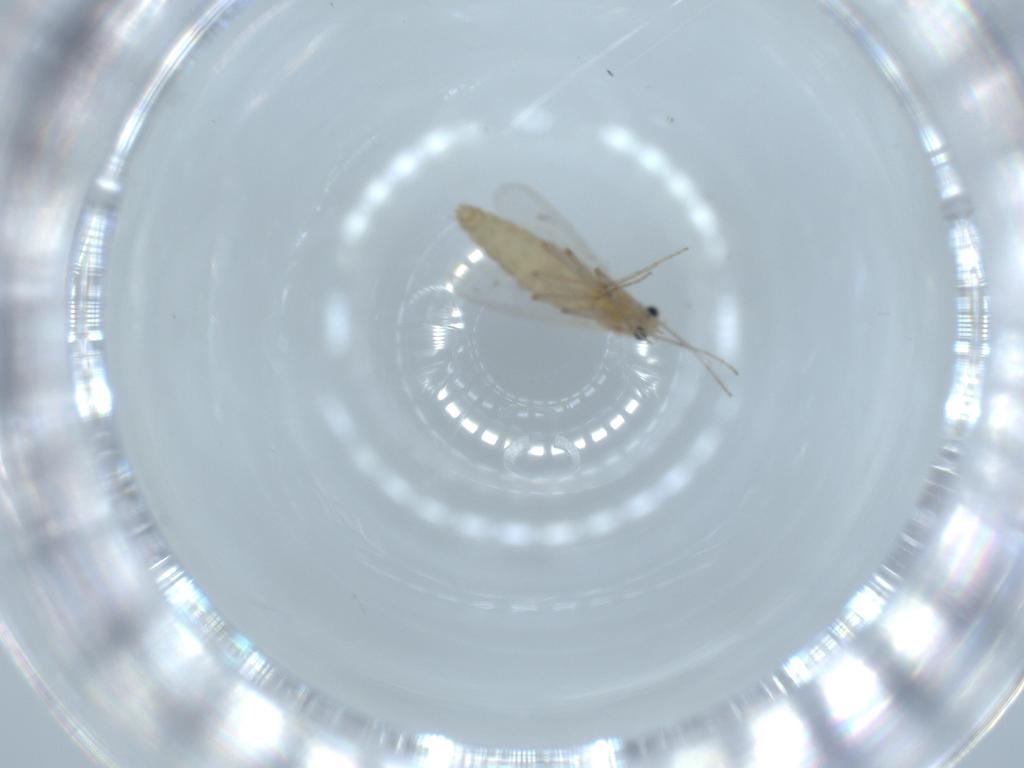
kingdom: Animalia
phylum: Arthropoda
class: Insecta
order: Diptera
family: Chironomidae
